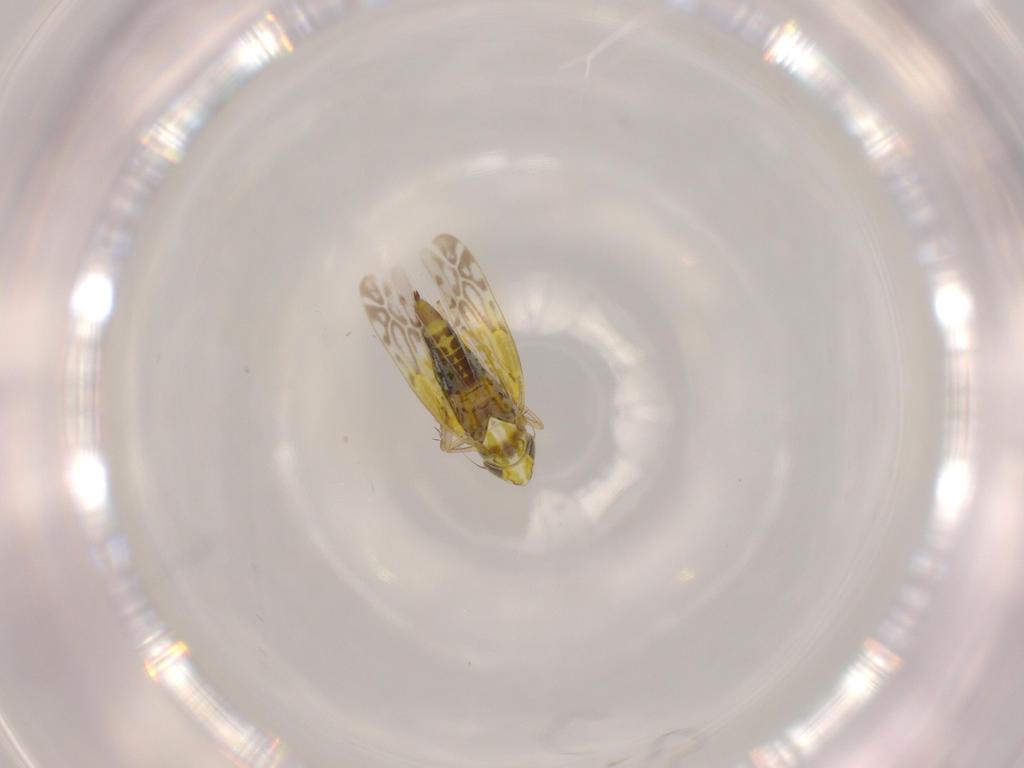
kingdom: Animalia
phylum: Arthropoda
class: Insecta
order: Hemiptera
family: Cicadellidae
